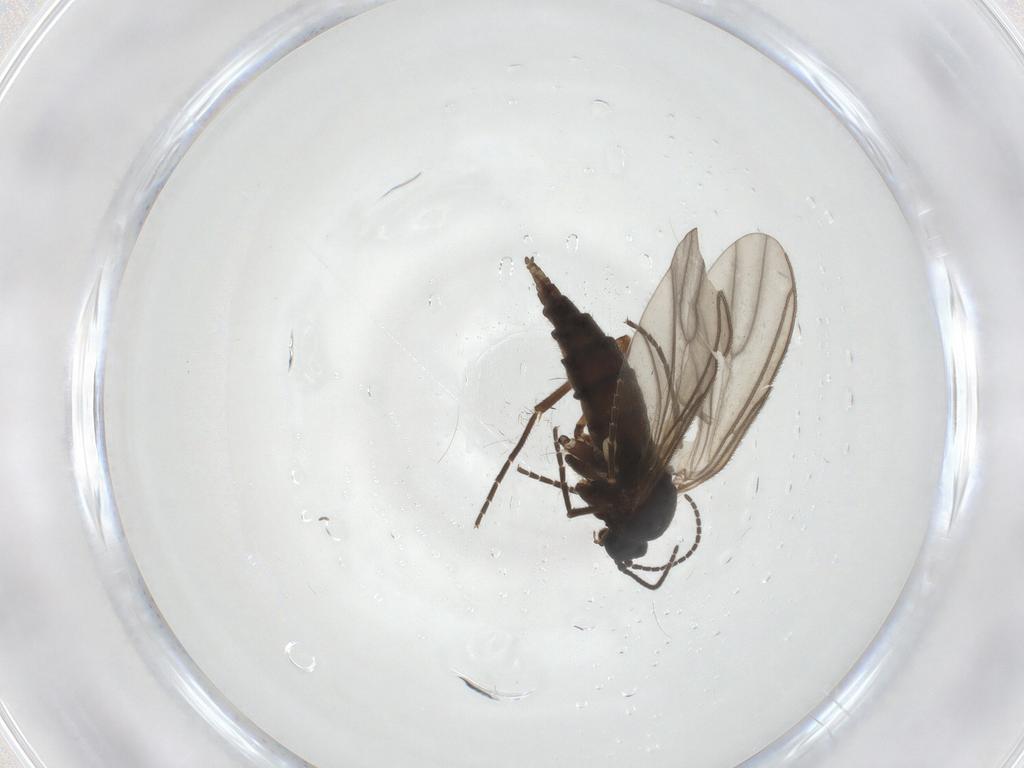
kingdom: Animalia
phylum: Arthropoda
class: Insecta
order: Diptera
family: Sciaridae
